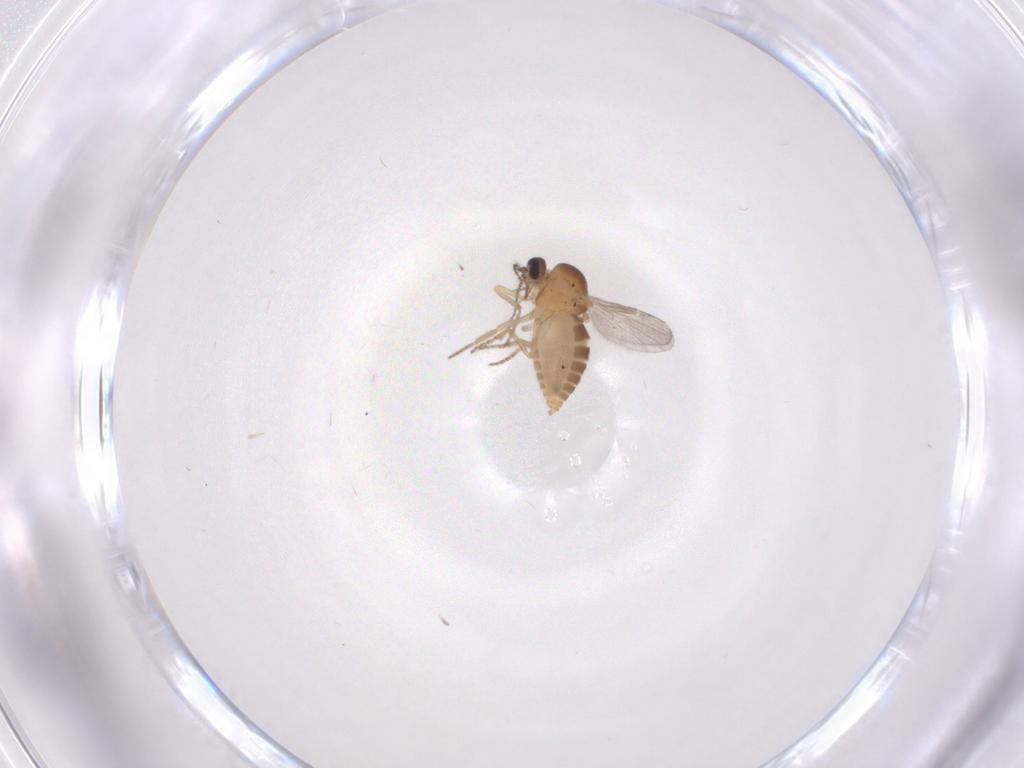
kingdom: Animalia
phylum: Arthropoda
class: Insecta
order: Diptera
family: Ceratopogonidae
